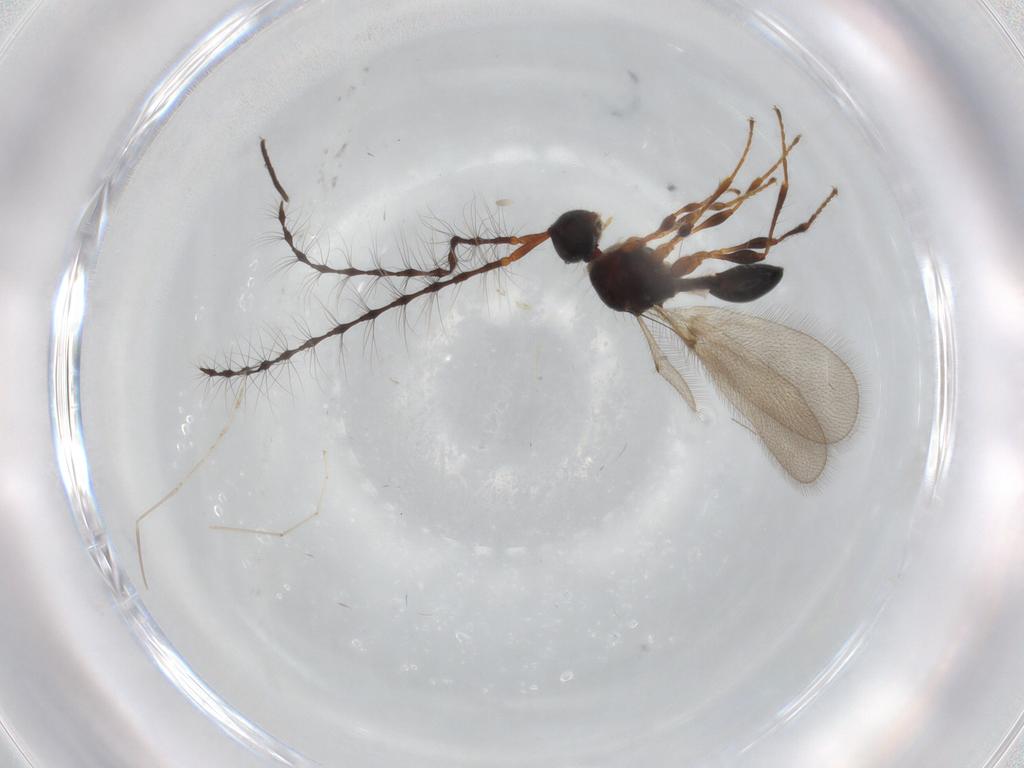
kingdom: Animalia
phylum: Arthropoda
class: Insecta
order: Hymenoptera
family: Diapriidae
